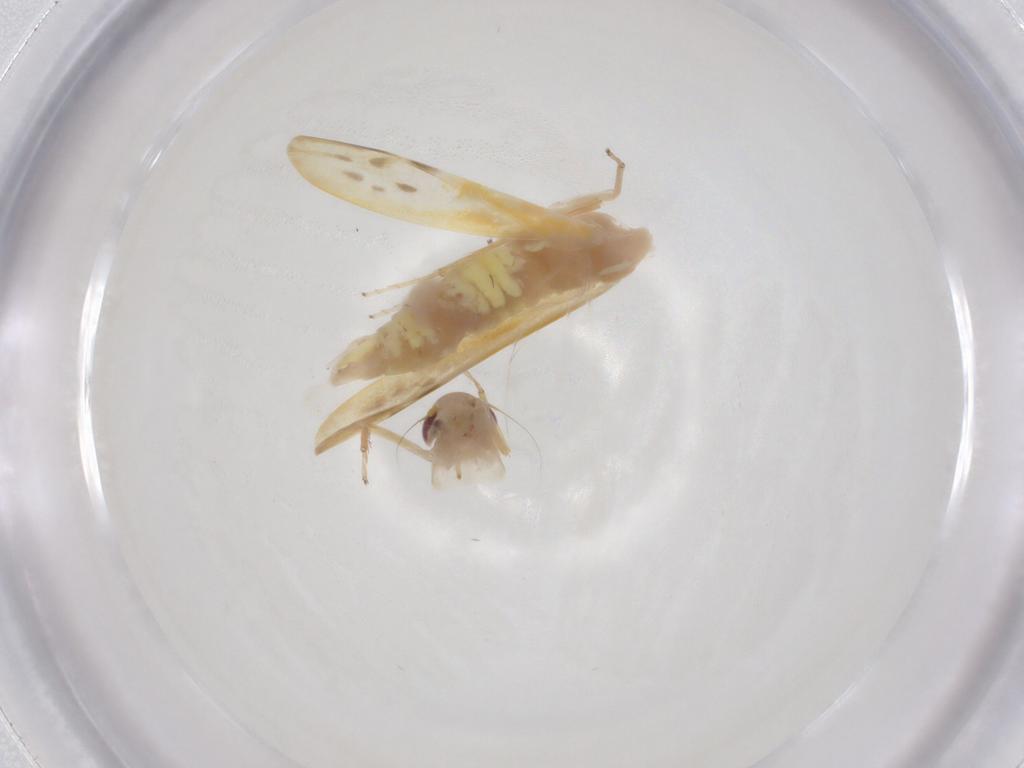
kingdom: Animalia
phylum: Arthropoda
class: Insecta
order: Hemiptera
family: Cicadellidae
